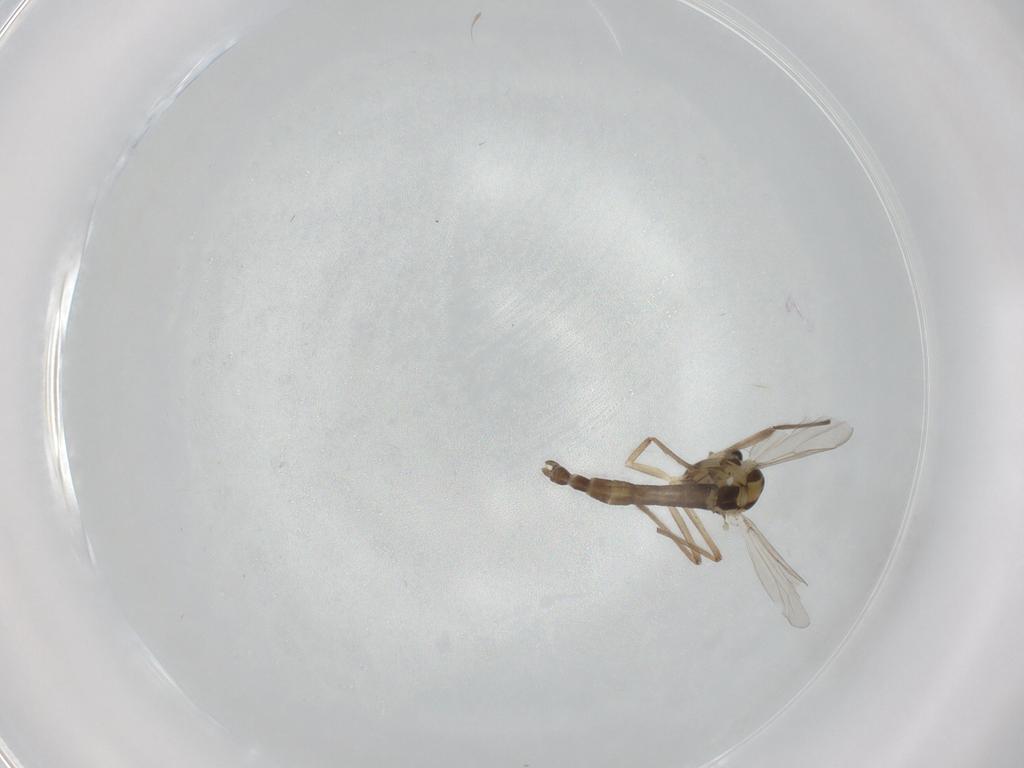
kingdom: Animalia
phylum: Arthropoda
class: Insecta
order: Diptera
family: Chironomidae
